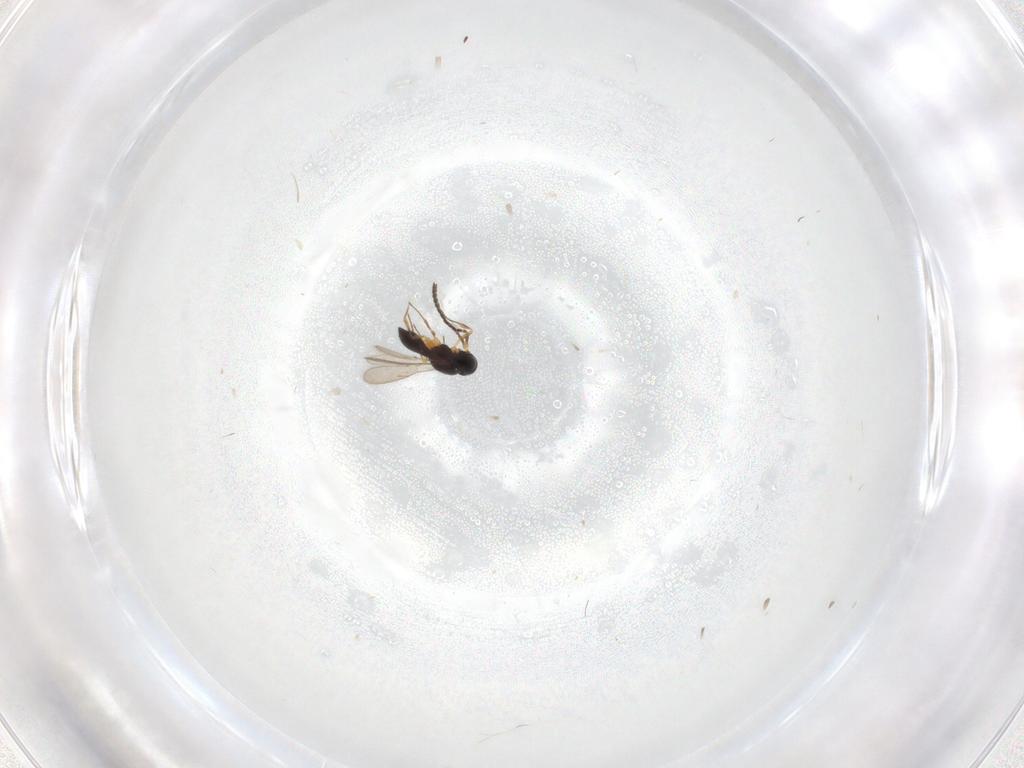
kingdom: Animalia
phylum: Arthropoda
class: Insecta
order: Hymenoptera
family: Scelionidae
